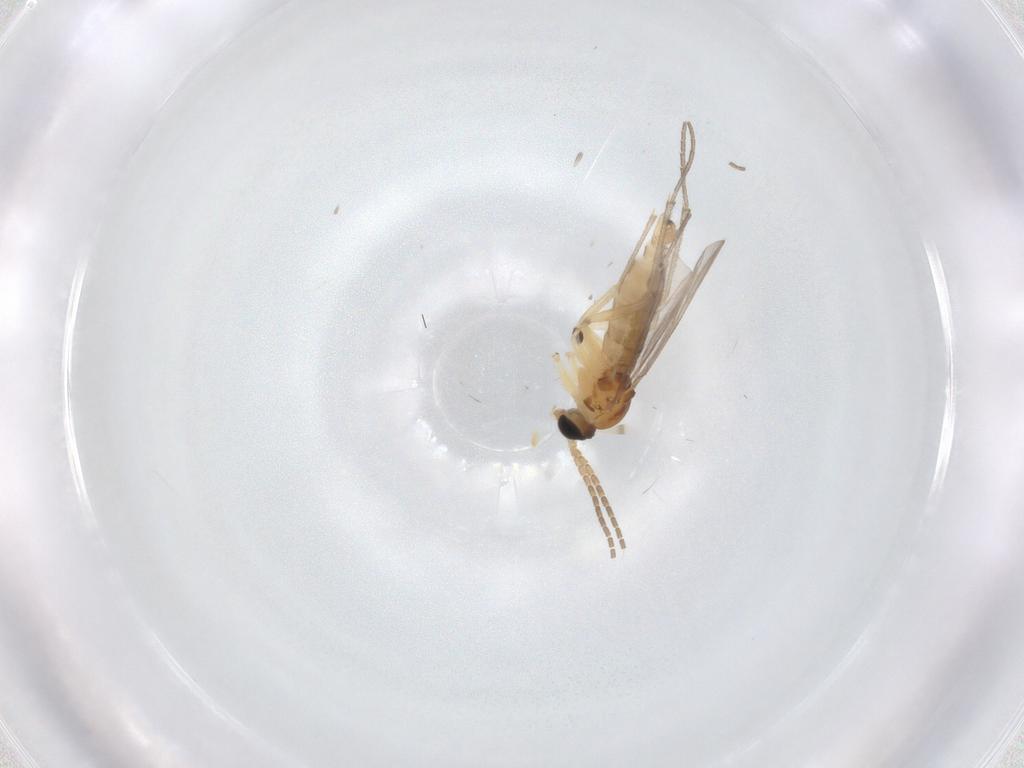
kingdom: Animalia
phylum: Arthropoda
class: Insecta
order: Diptera
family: Sciaridae
